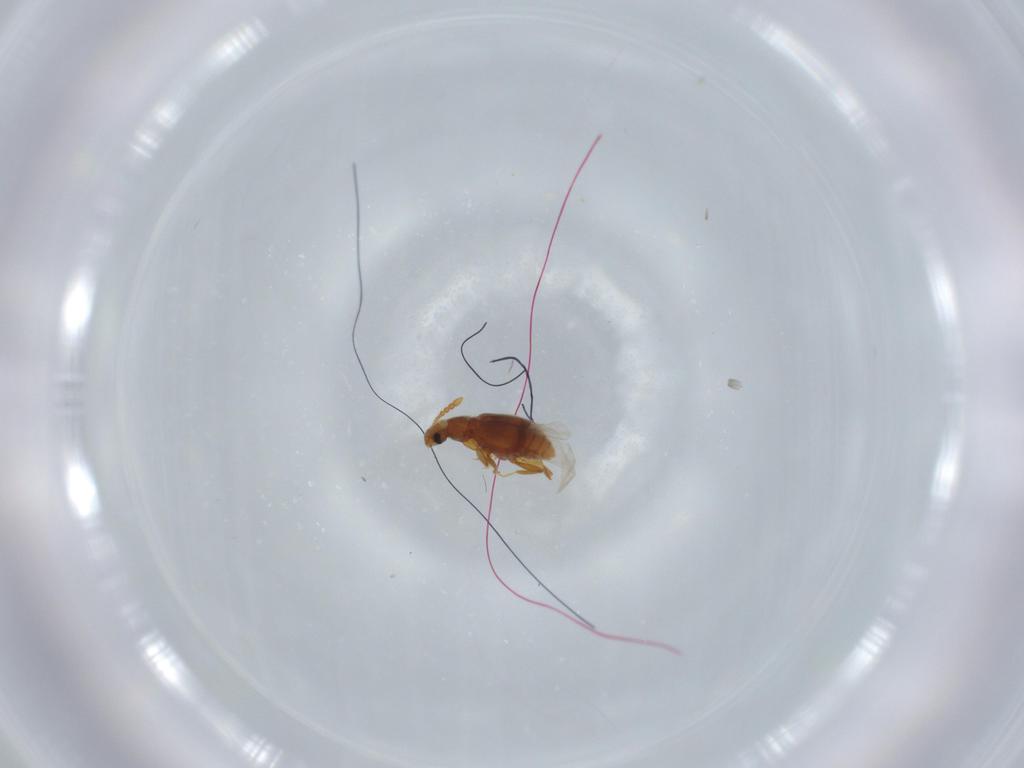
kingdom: Animalia
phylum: Arthropoda
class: Insecta
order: Coleoptera
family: Staphylinidae
